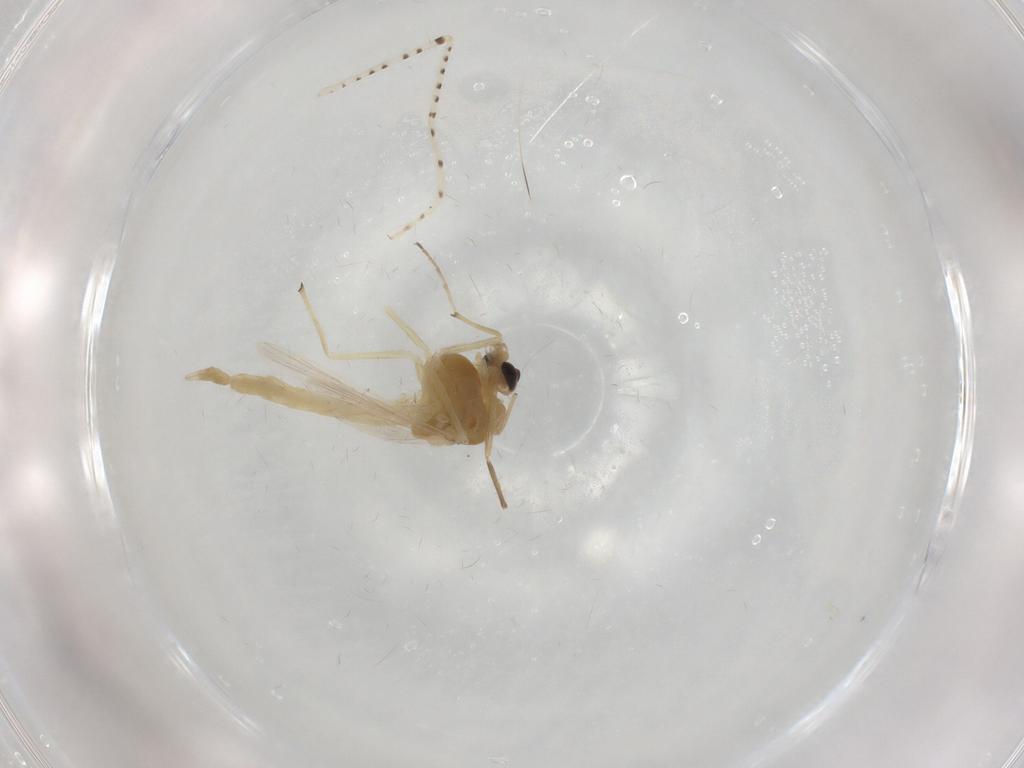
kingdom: Animalia
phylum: Arthropoda
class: Insecta
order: Diptera
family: Chironomidae
